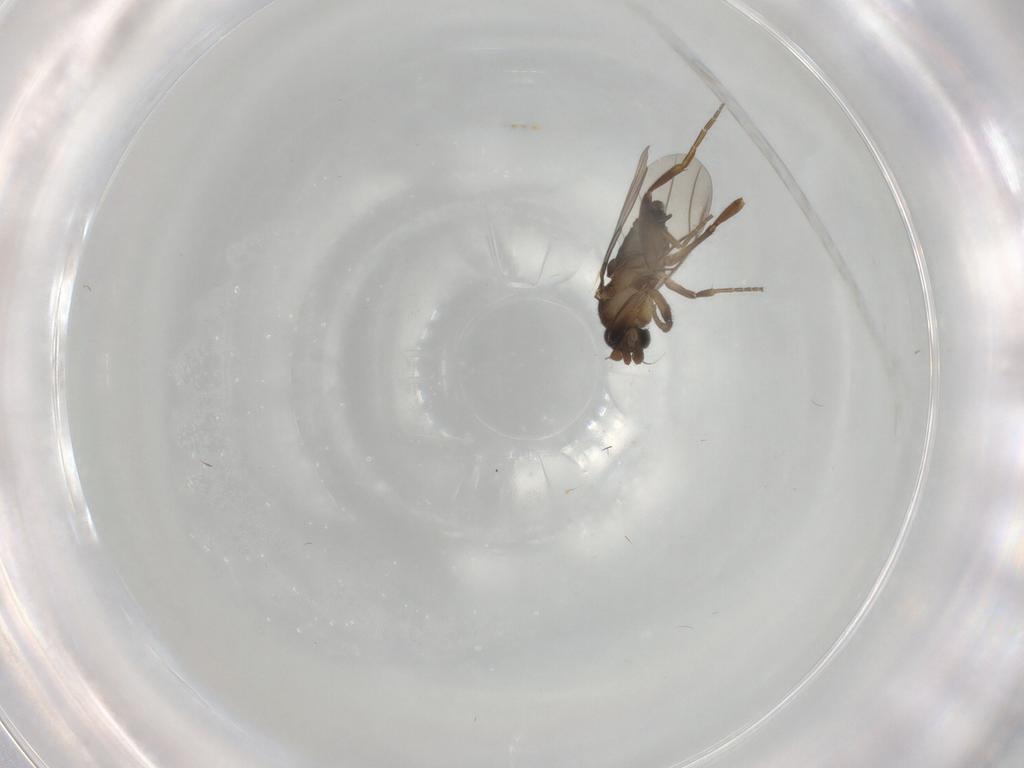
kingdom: Animalia
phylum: Arthropoda
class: Insecta
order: Diptera
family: Phoridae
